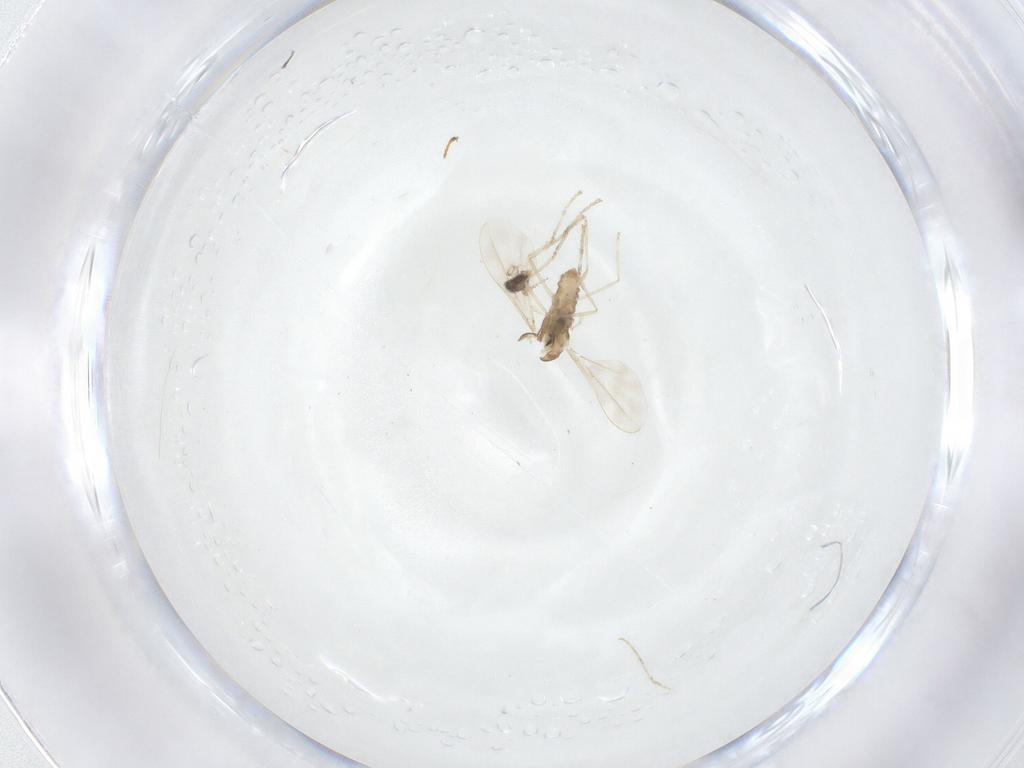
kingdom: Animalia
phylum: Arthropoda
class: Insecta
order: Diptera
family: Cecidomyiidae
